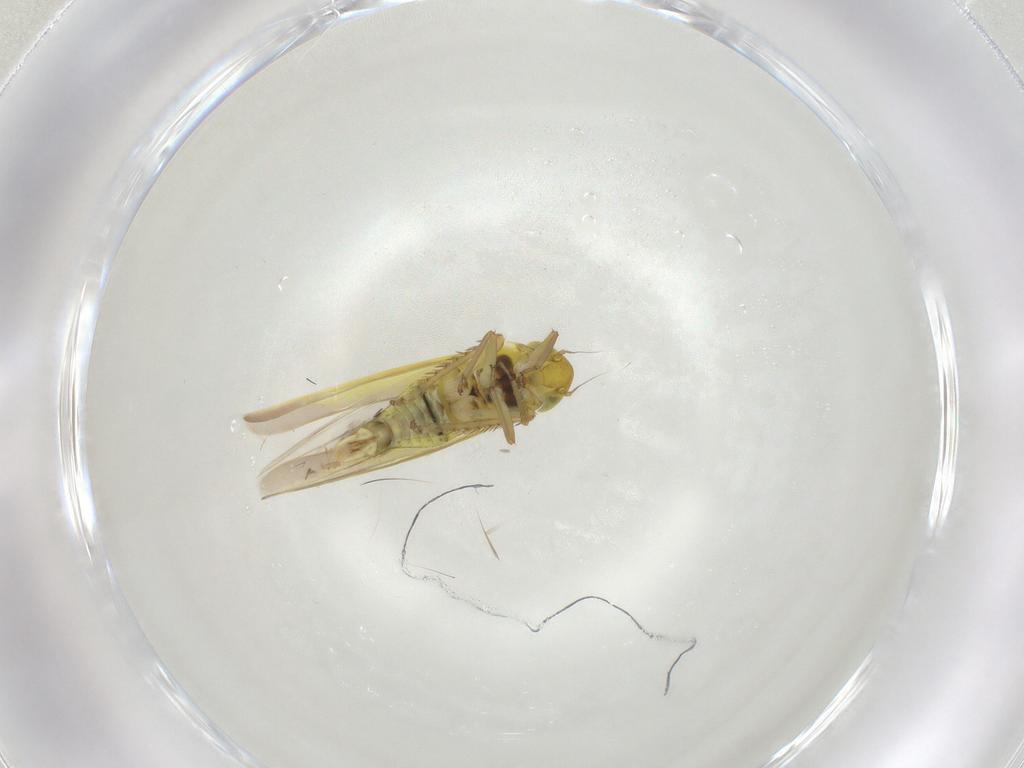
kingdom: Animalia
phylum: Arthropoda
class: Insecta
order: Hemiptera
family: Cicadellidae
